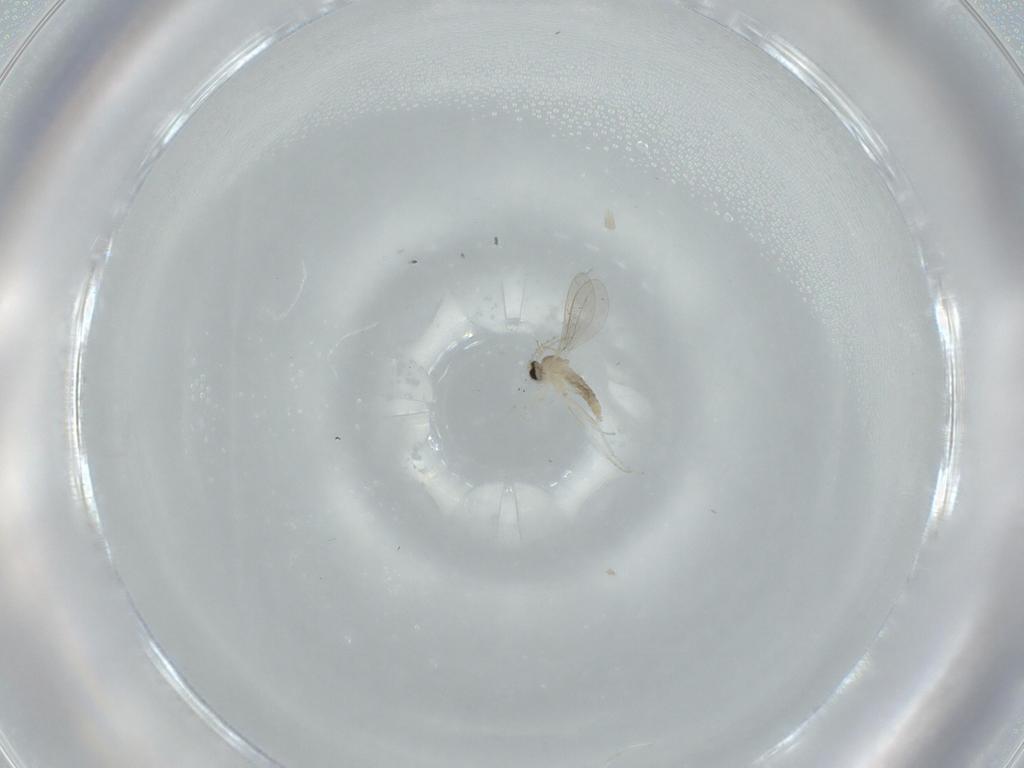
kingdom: Animalia
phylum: Arthropoda
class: Insecta
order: Diptera
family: Cecidomyiidae
